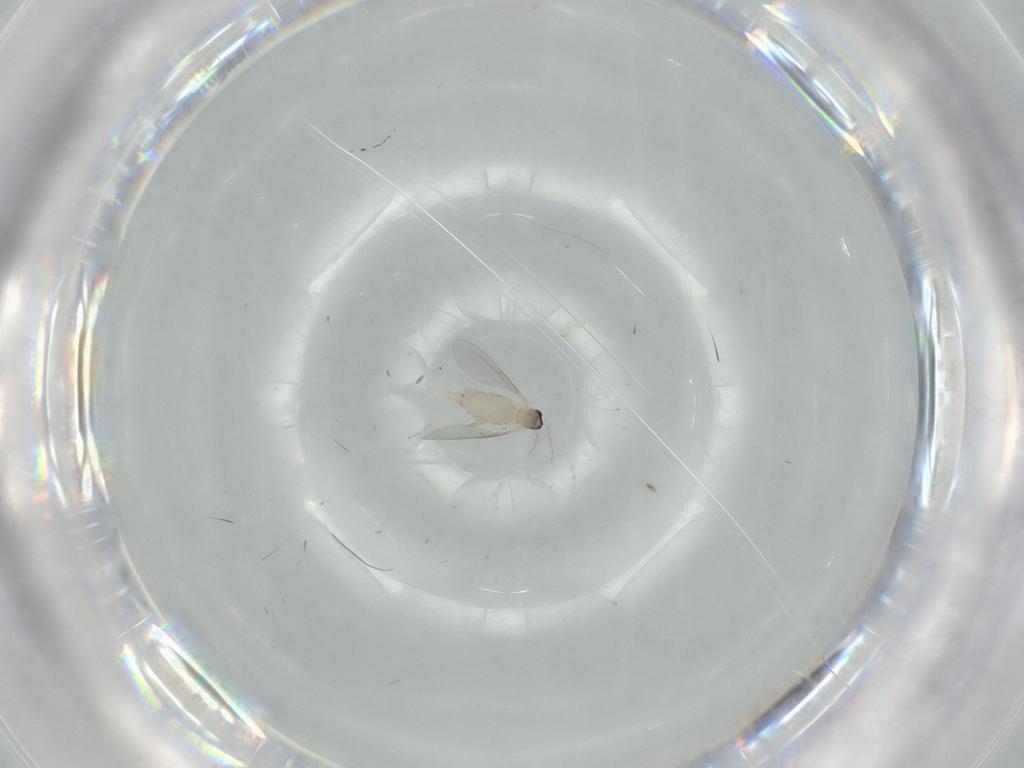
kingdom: Animalia
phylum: Arthropoda
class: Insecta
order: Diptera
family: Cecidomyiidae
